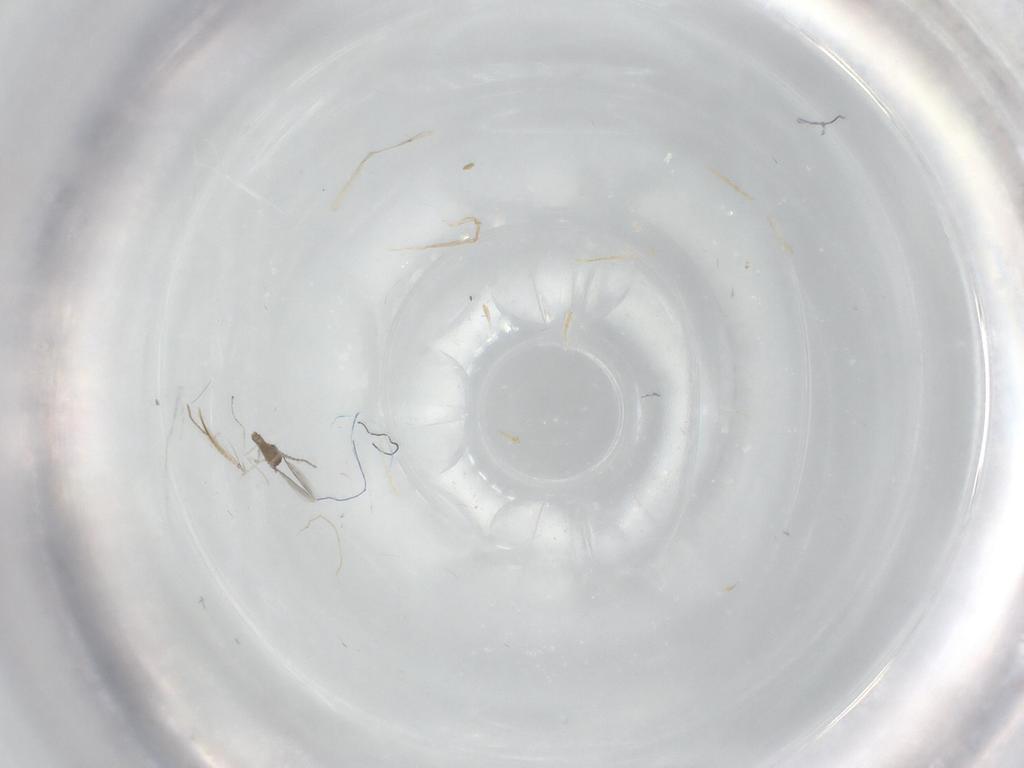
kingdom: Animalia
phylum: Arthropoda
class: Insecta
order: Diptera
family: Ceratopogonidae
